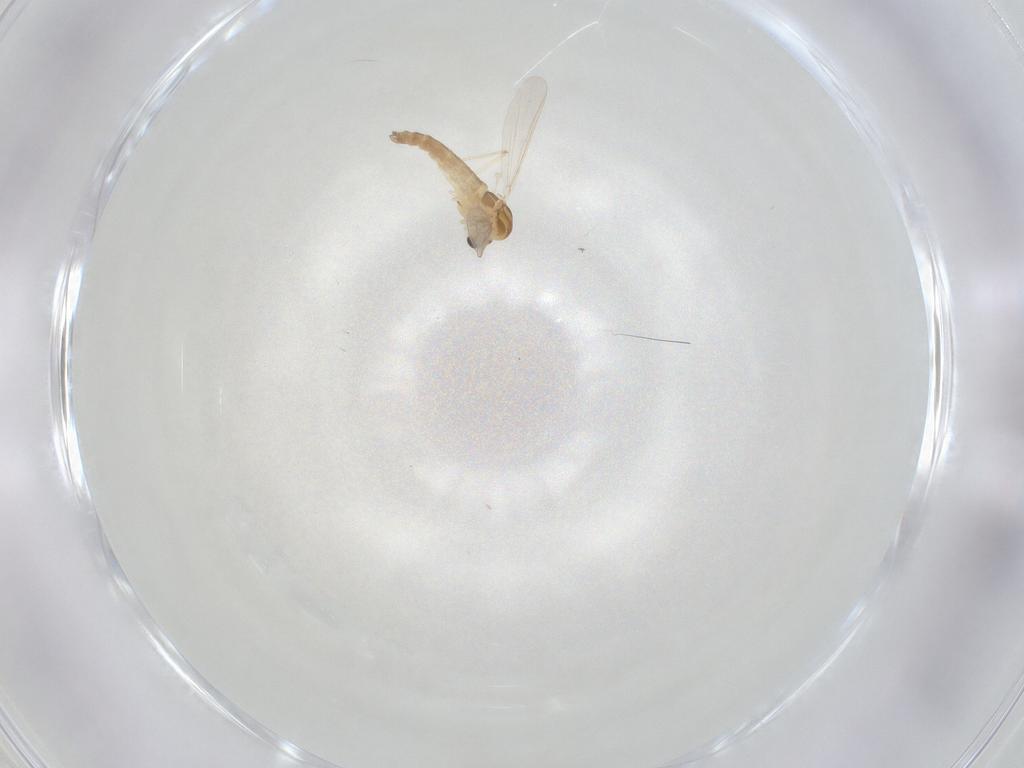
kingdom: Animalia
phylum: Arthropoda
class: Insecta
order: Diptera
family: Chironomidae
